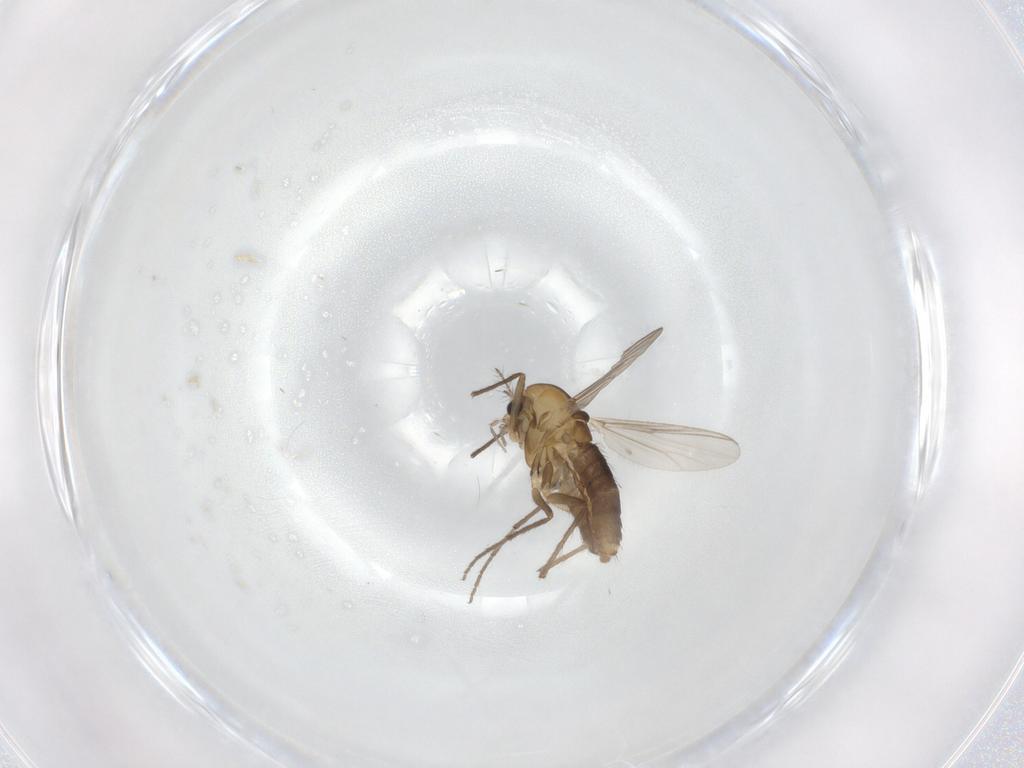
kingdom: Animalia
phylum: Arthropoda
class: Insecta
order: Diptera
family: Chironomidae
